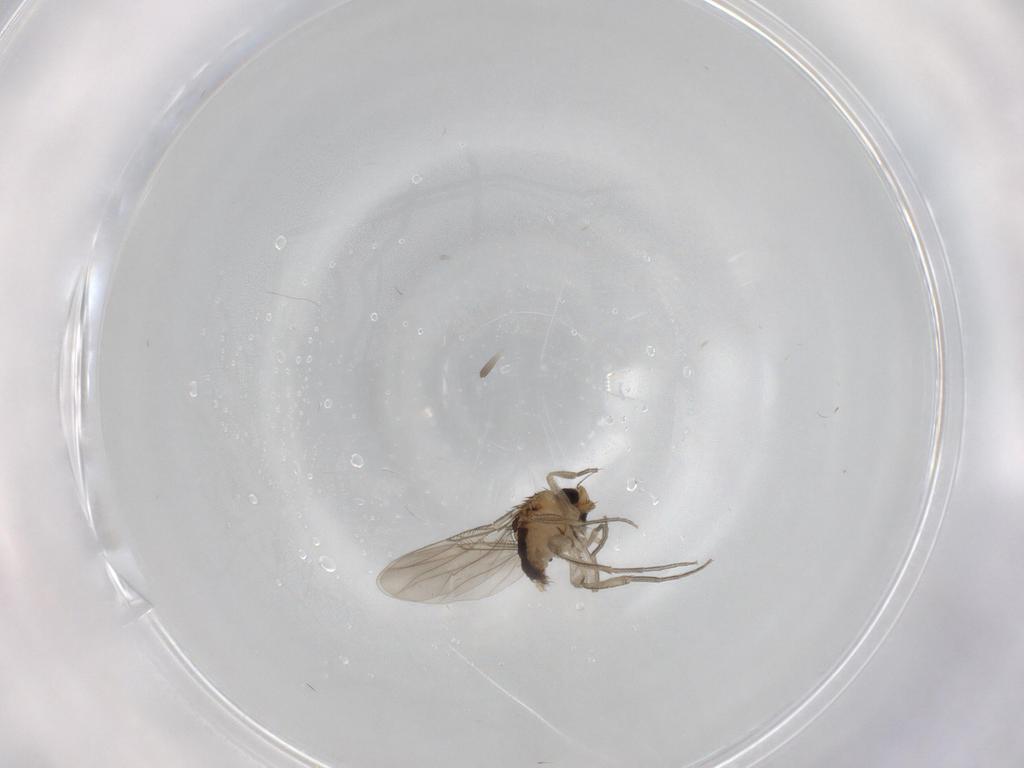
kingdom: Animalia
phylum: Arthropoda
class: Insecta
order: Diptera
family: Phoridae
